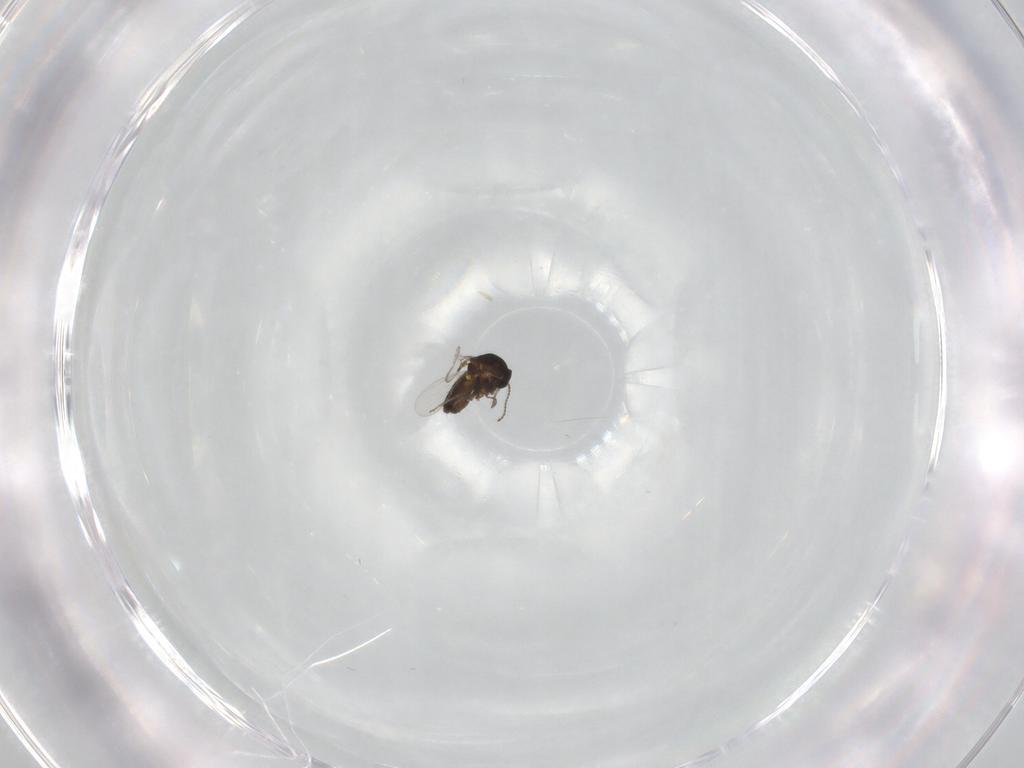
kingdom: Animalia
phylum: Arthropoda
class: Insecta
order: Diptera
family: Ceratopogonidae
